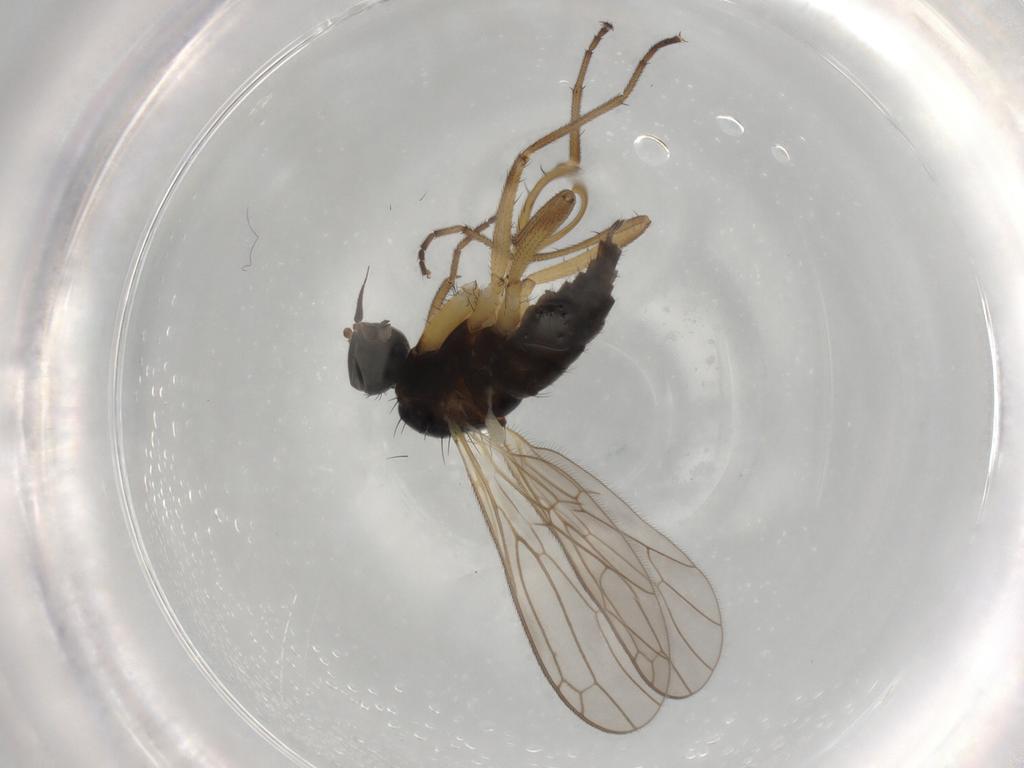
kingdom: Animalia
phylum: Arthropoda
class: Insecta
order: Diptera
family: Empididae
